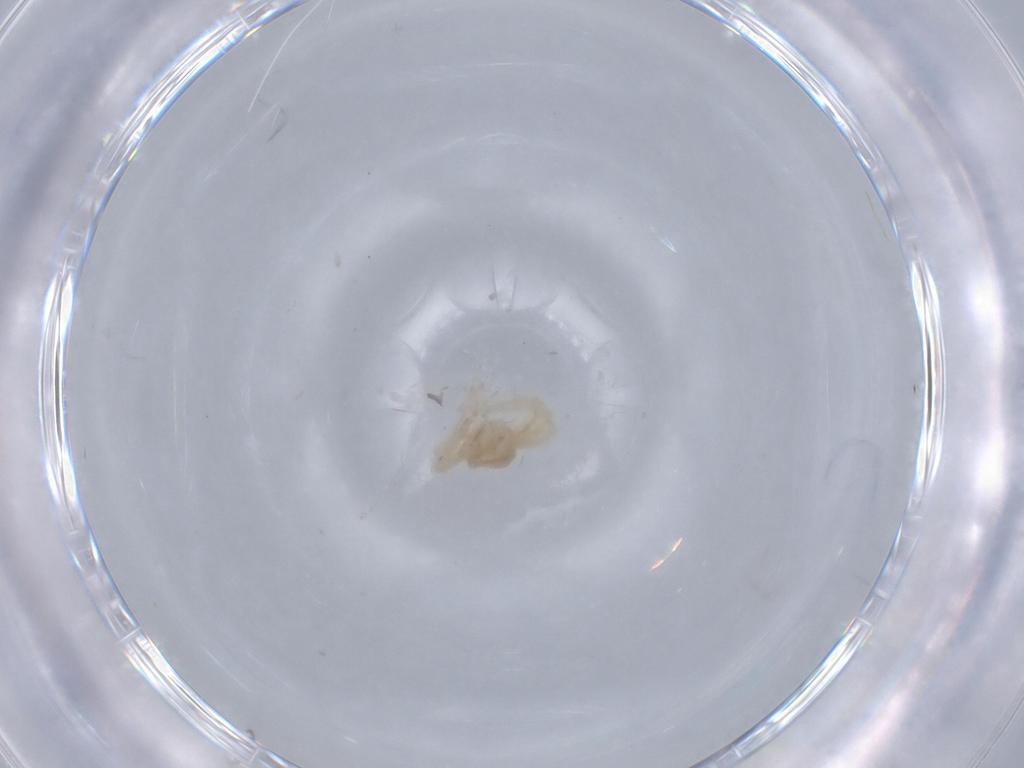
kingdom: Animalia
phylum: Arthropoda
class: Arachnida
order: Trombidiformes
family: Anystidae
